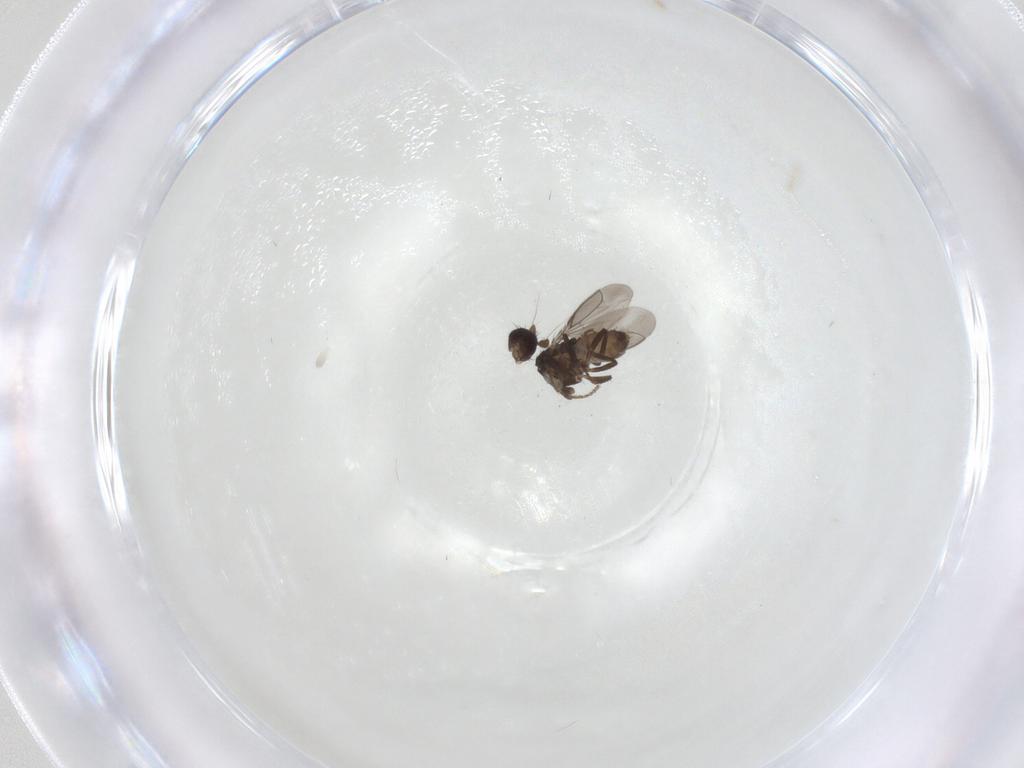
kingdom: Animalia
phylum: Arthropoda
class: Insecta
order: Diptera
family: Sphaeroceridae
